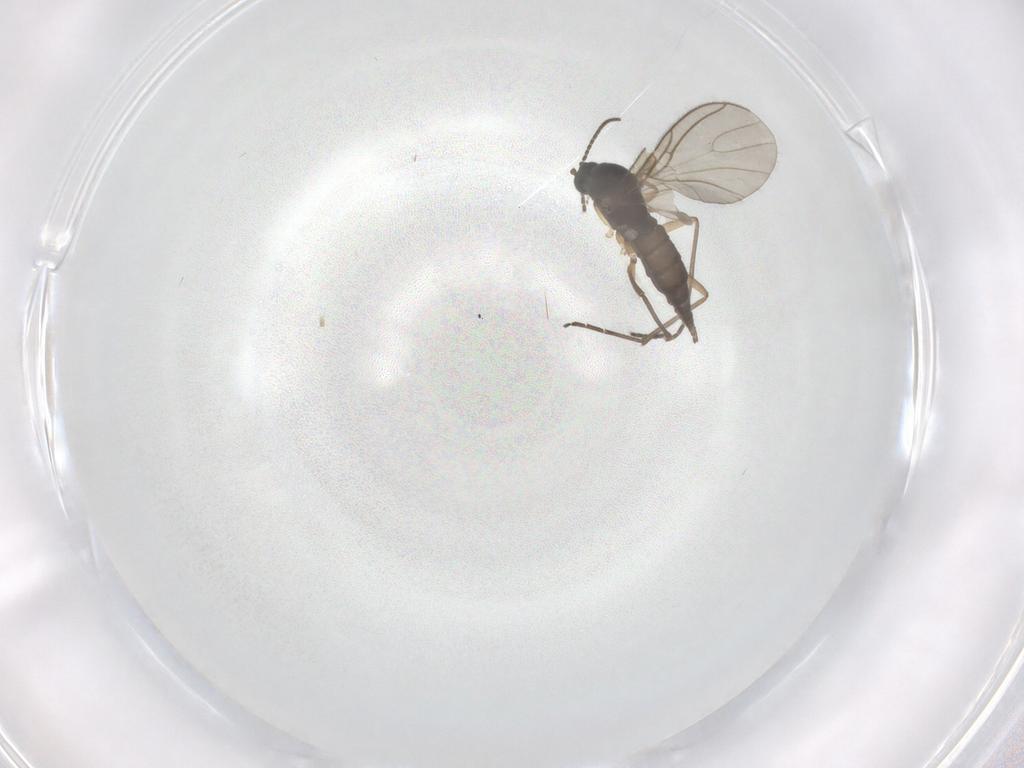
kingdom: Animalia
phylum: Arthropoda
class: Insecta
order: Diptera
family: Sciaridae
